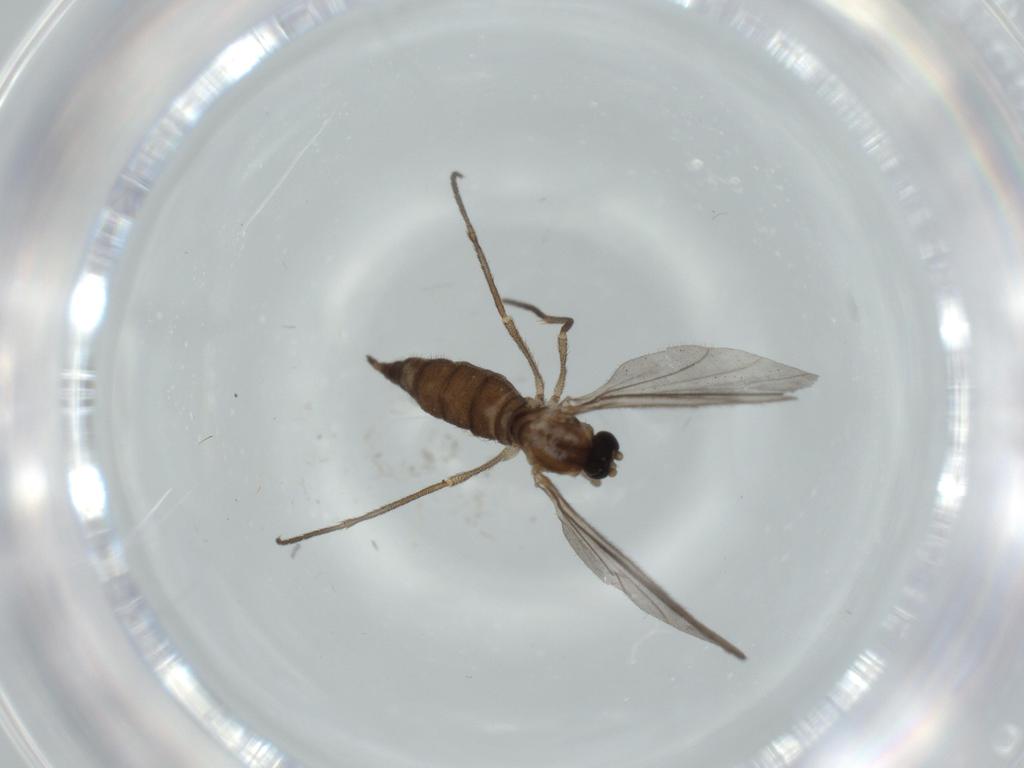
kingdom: Animalia
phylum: Arthropoda
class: Insecta
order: Diptera
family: Sciaridae
